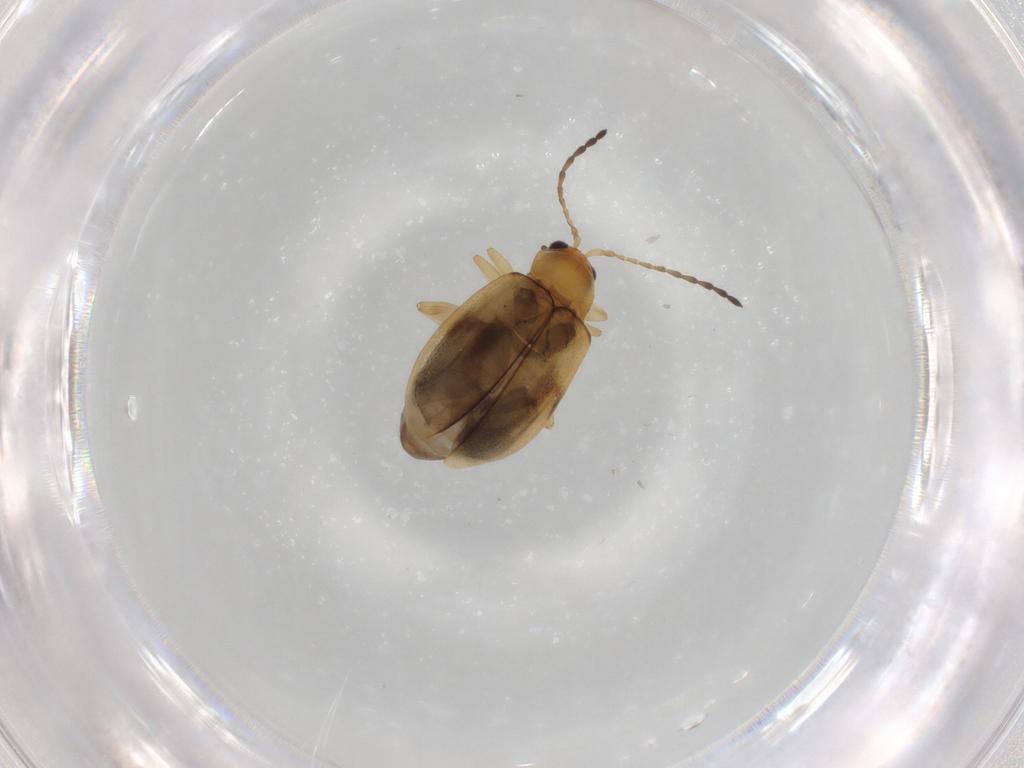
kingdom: Animalia
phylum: Arthropoda
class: Insecta
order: Coleoptera
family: Chrysomelidae
